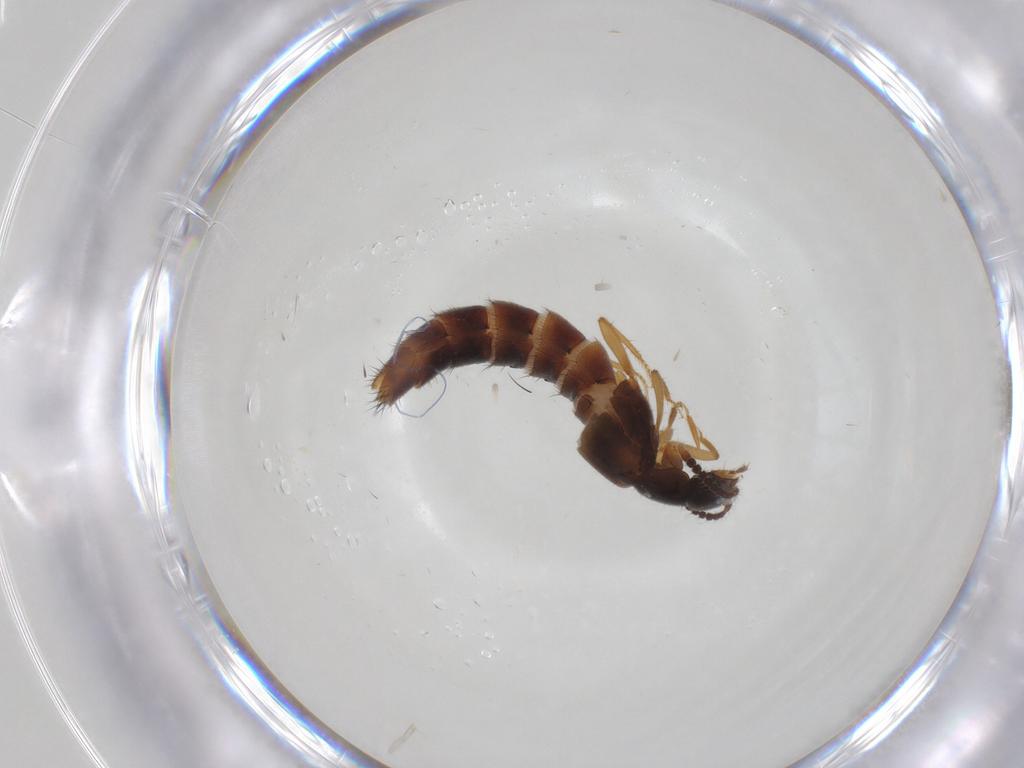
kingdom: Animalia
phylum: Arthropoda
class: Insecta
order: Coleoptera
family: Staphylinidae
